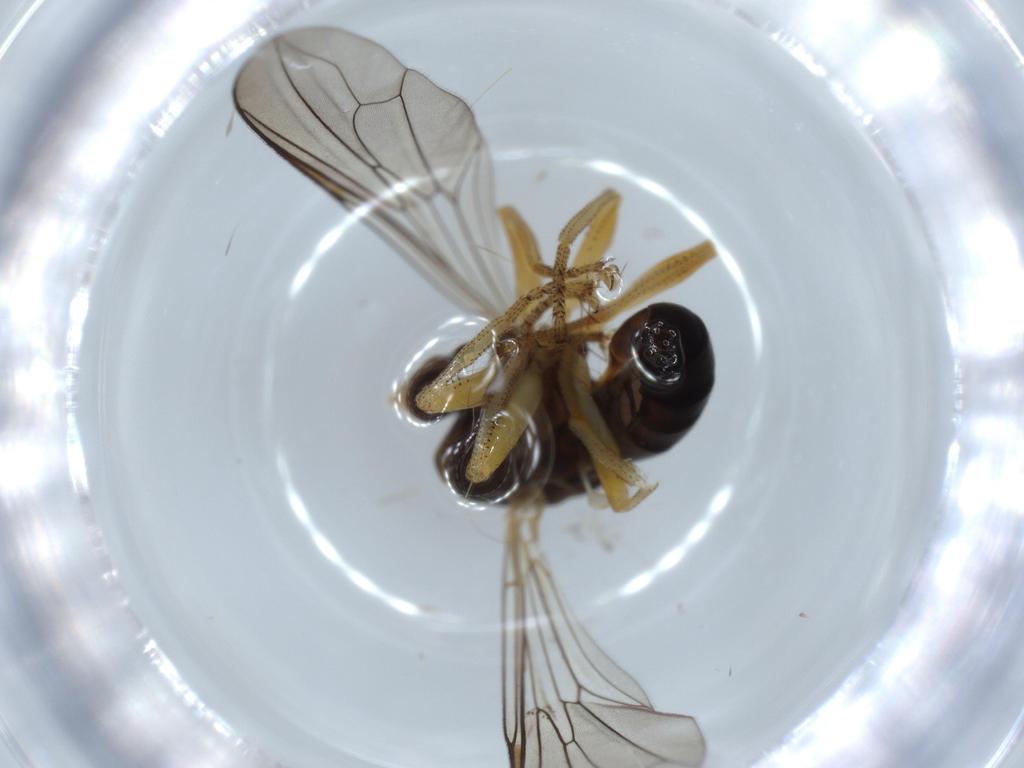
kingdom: Animalia
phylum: Arthropoda
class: Insecta
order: Diptera
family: Pipunculidae
